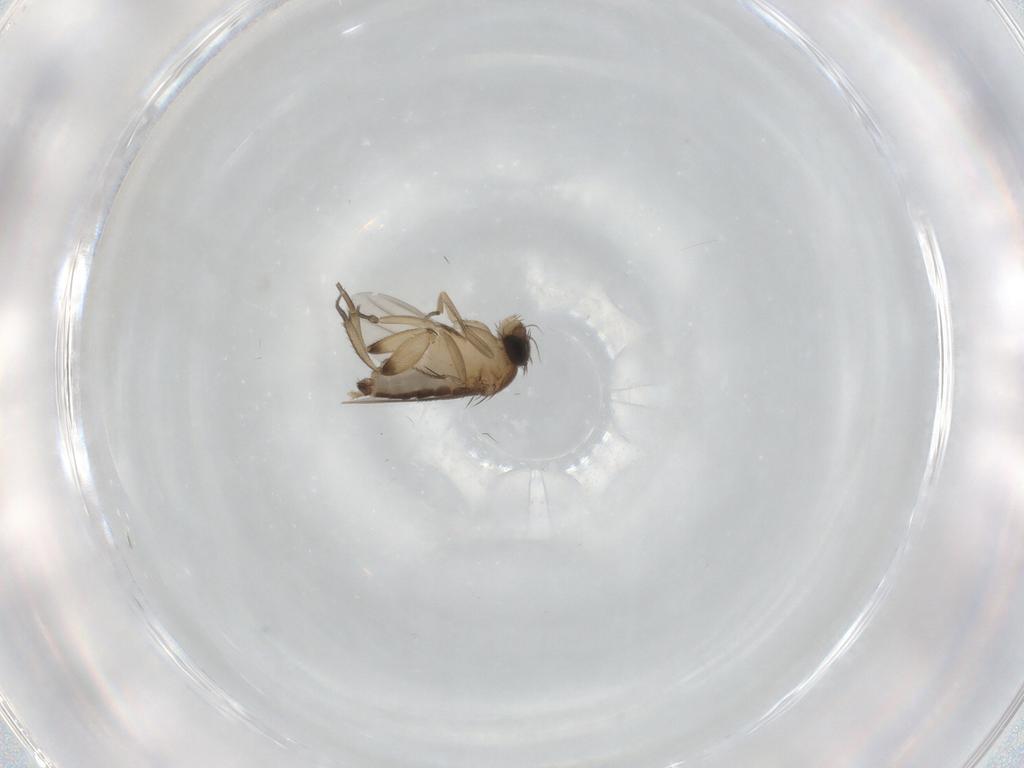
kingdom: Animalia
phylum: Arthropoda
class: Insecta
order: Diptera
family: Phoridae
